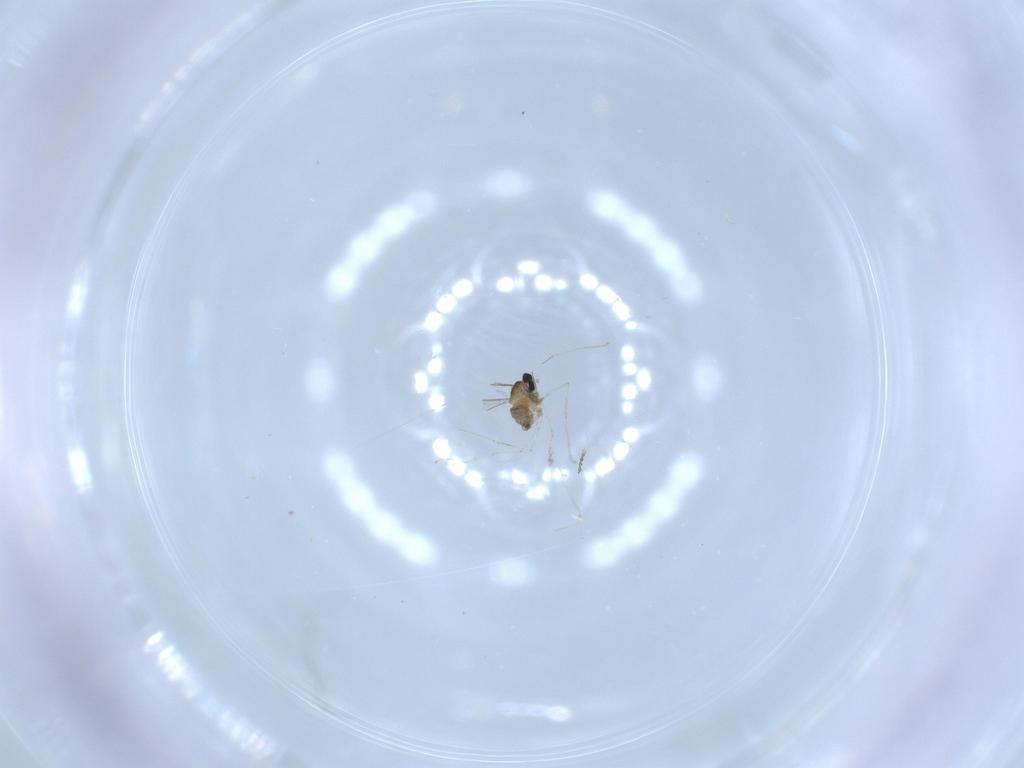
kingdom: Animalia
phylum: Arthropoda
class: Insecta
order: Diptera
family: Cecidomyiidae
